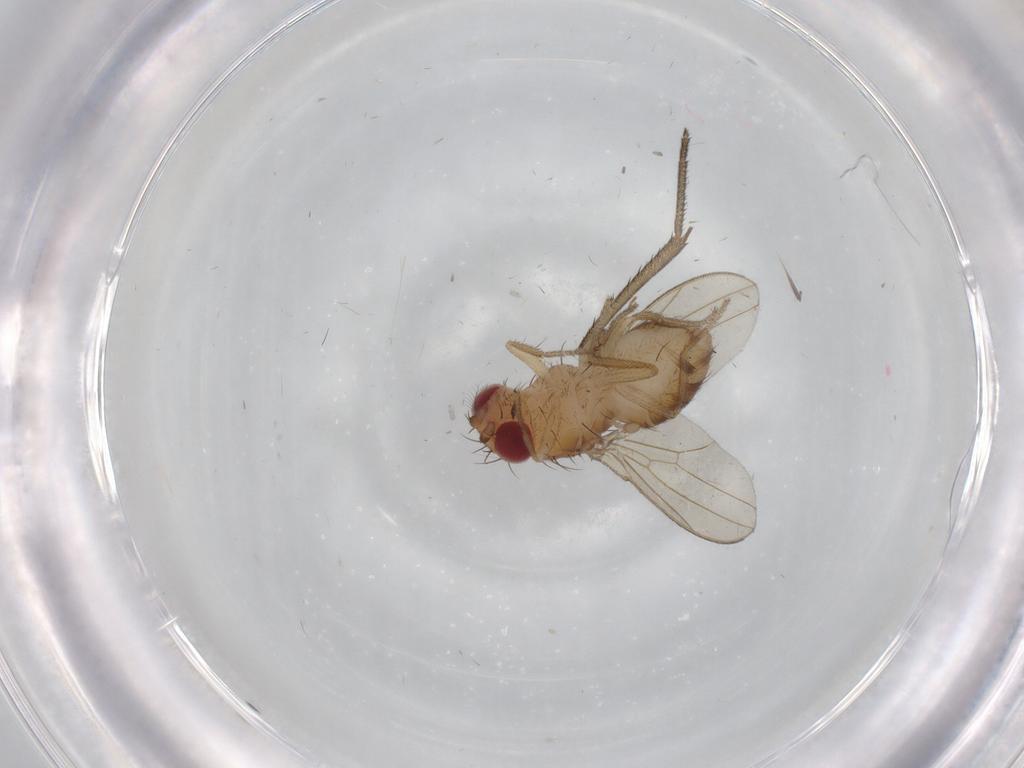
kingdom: Animalia
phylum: Arthropoda
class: Insecta
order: Diptera
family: Drosophilidae
